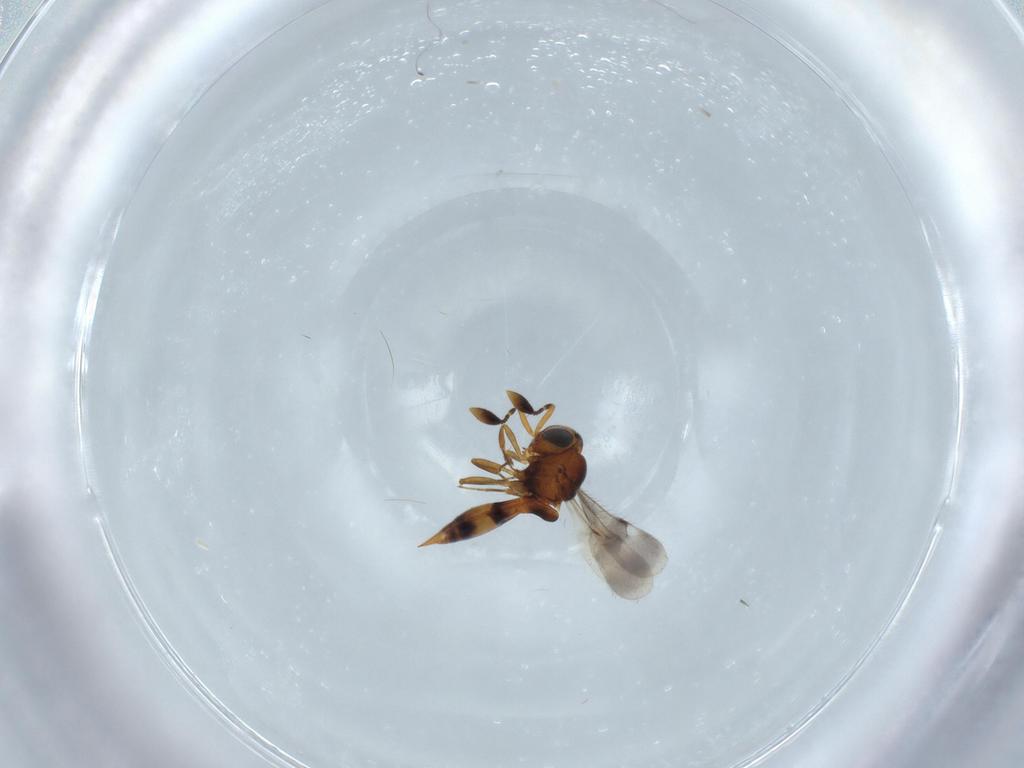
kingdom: Animalia
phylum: Arthropoda
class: Insecta
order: Hymenoptera
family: Scelionidae
